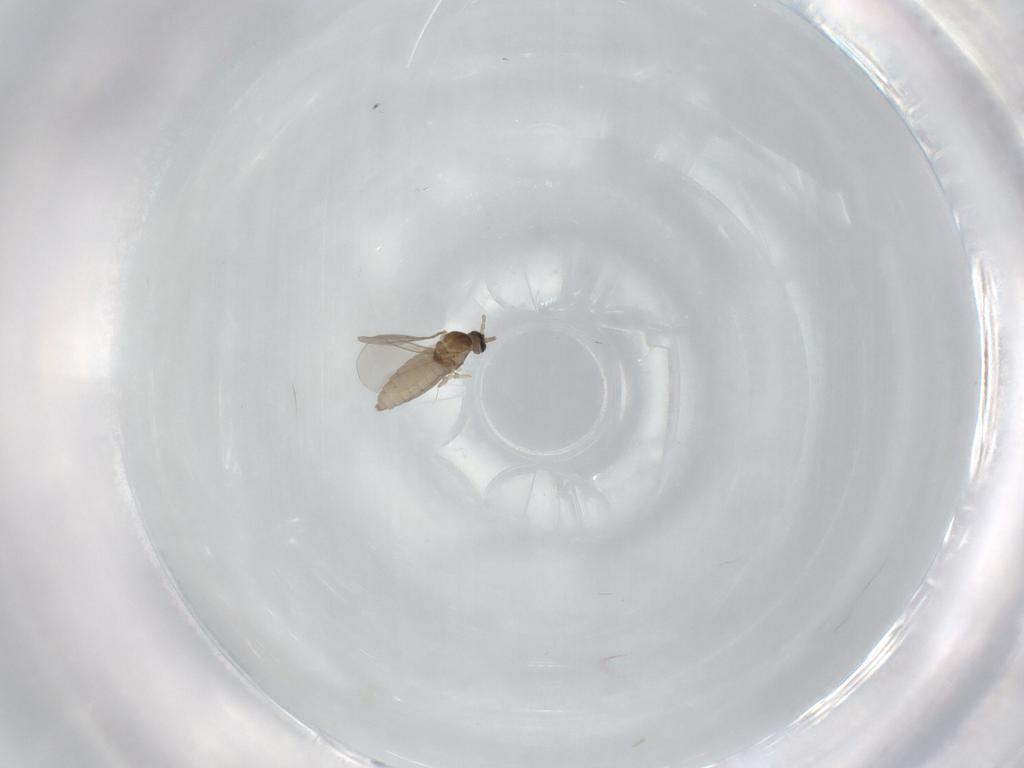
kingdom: Animalia
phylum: Arthropoda
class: Insecta
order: Diptera
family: Cecidomyiidae
